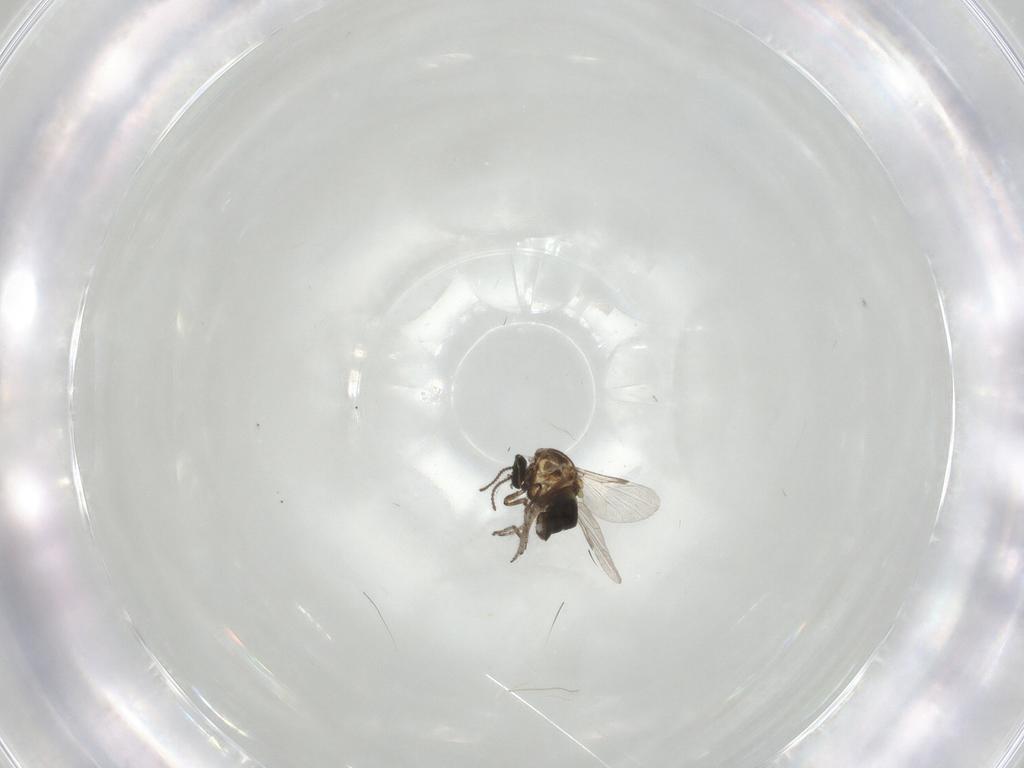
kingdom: Animalia
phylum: Arthropoda
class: Insecta
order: Diptera
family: Ceratopogonidae
